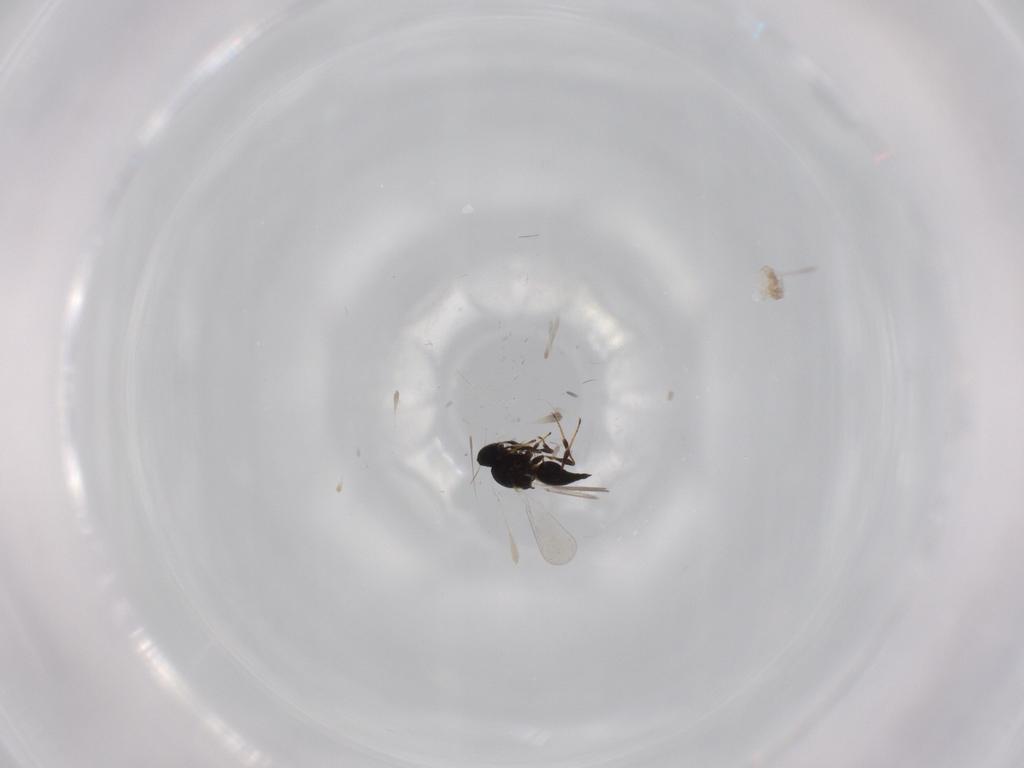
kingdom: Animalia
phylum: Arthropoda
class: Insecta
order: Hymenoptera
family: Platygastridae
